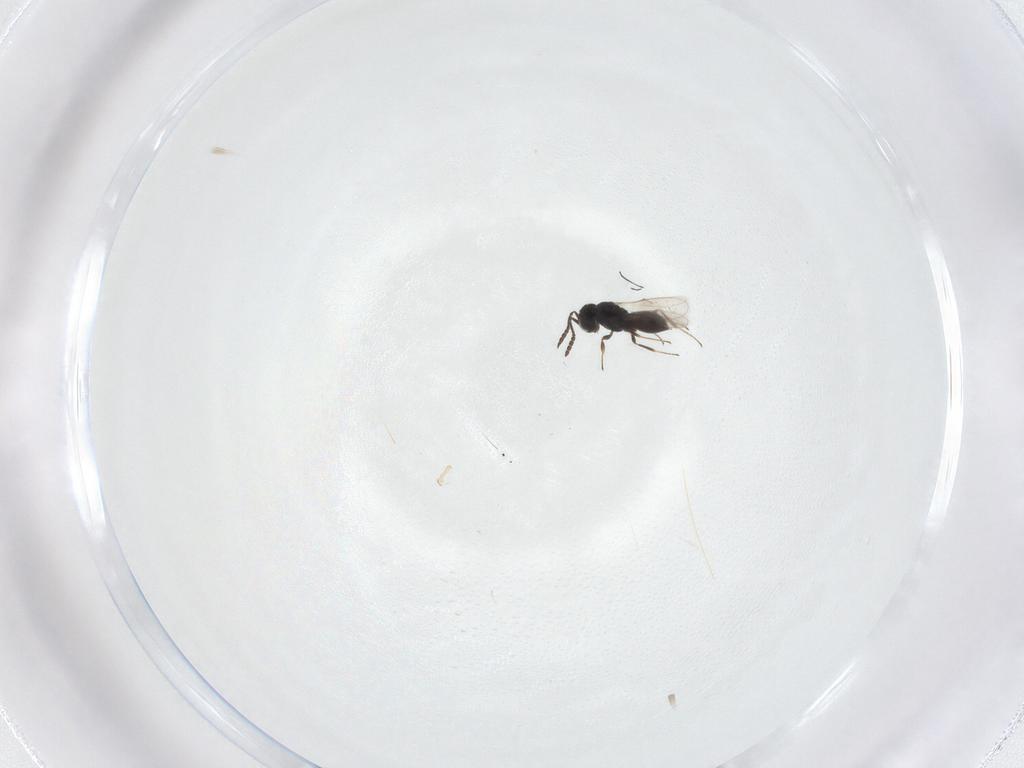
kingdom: Animalia
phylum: Arthropoda
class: Insecta
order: Hymenoptera
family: Scelionidae
